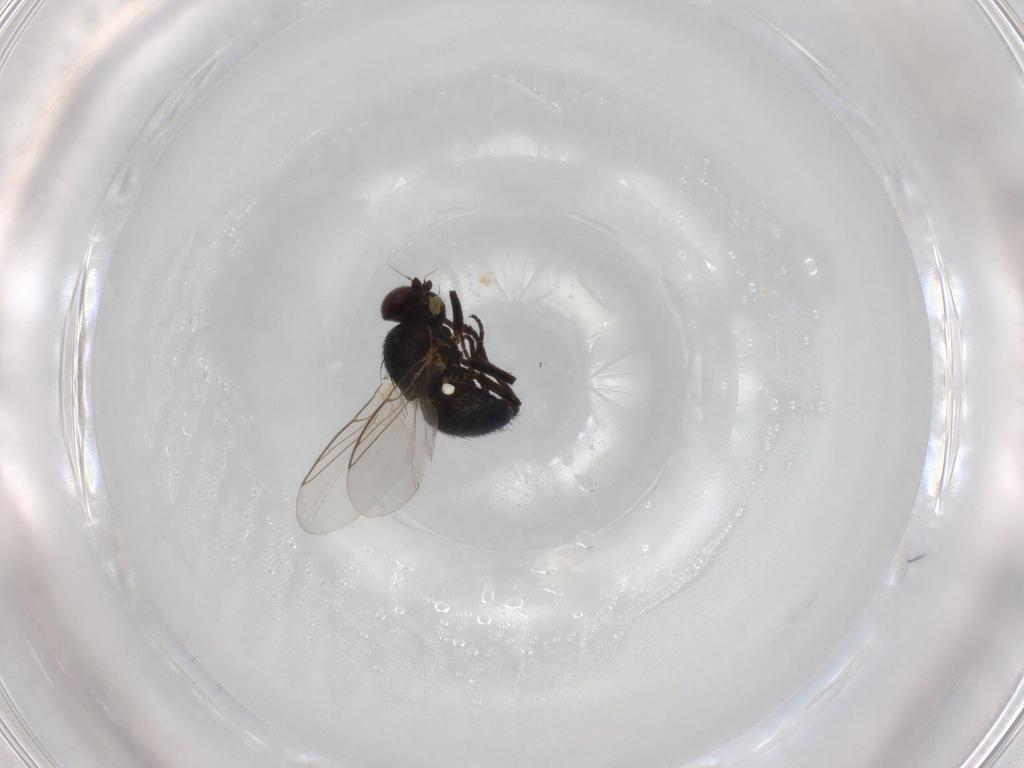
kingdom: Animalia
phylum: Arthropoda
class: Insecta
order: Diptera
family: Agromyzidae
